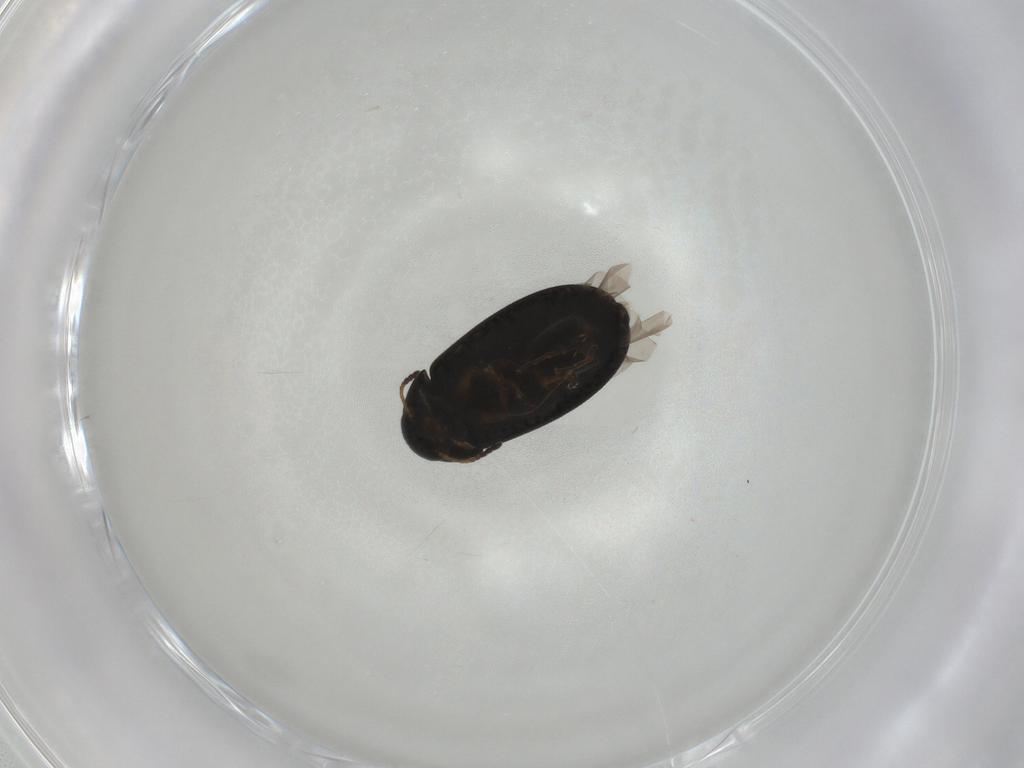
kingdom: Animalia
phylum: Arthropoda
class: Insecta
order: Coleoptera
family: Scraptiidae
